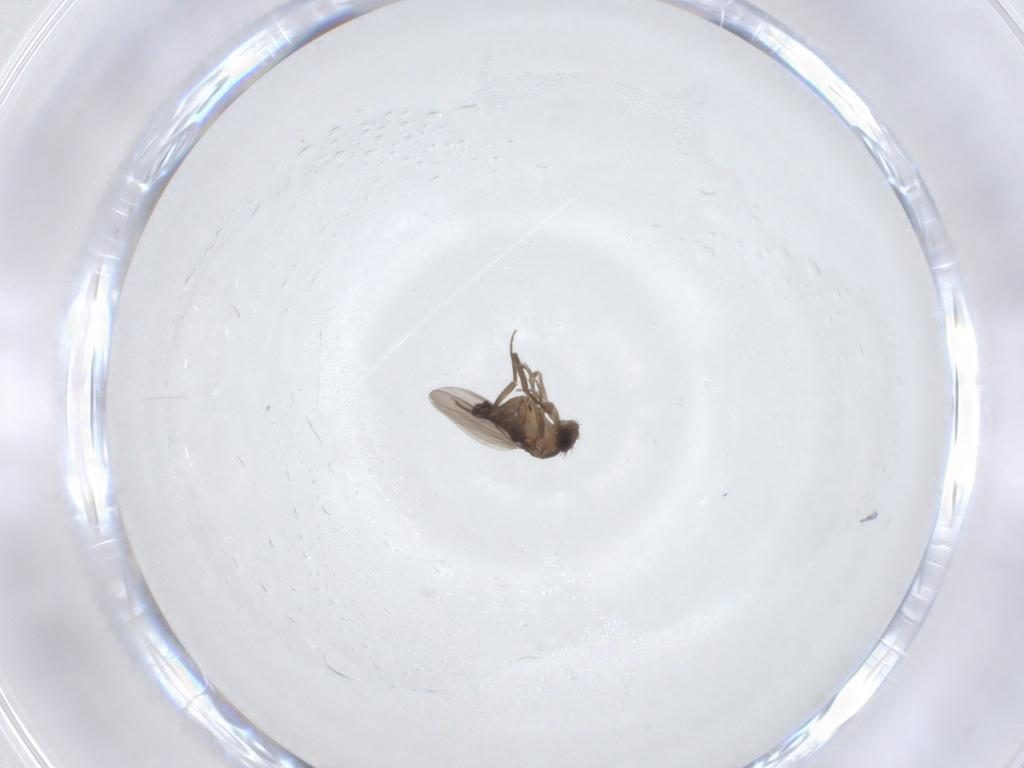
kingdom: Animalia
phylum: Arthropoda
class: Insecta
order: Diptera
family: Phoridae
